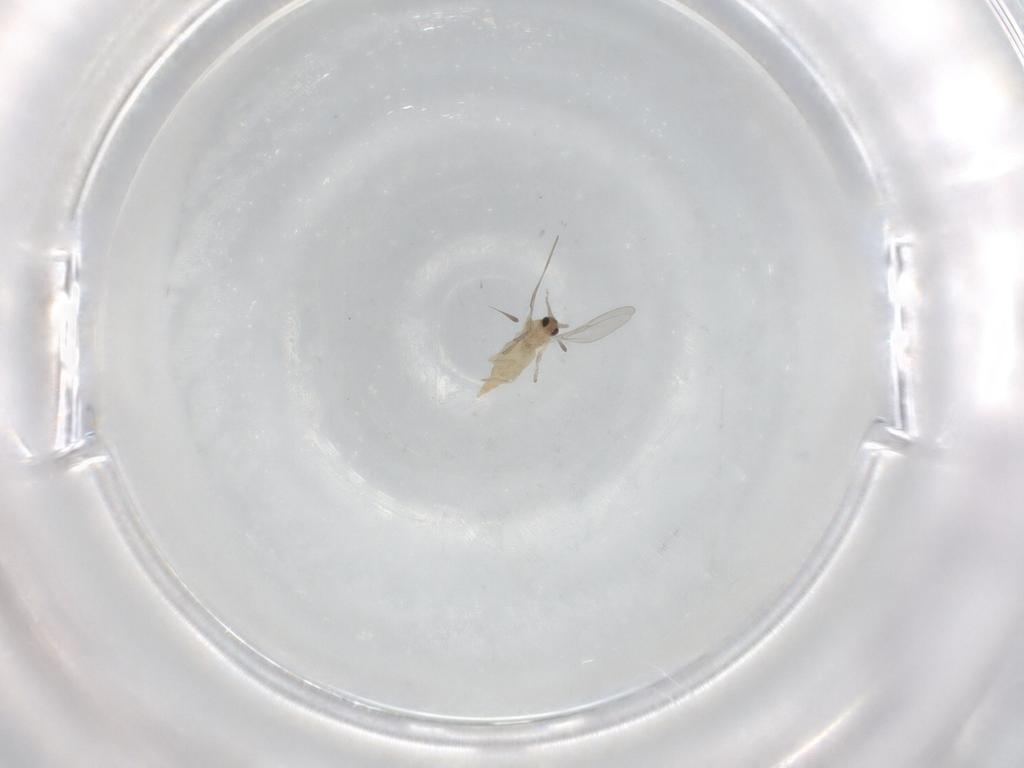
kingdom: Animalia
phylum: Arthropoda
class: Insecta
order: Diptera
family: Cecidomyiidae
